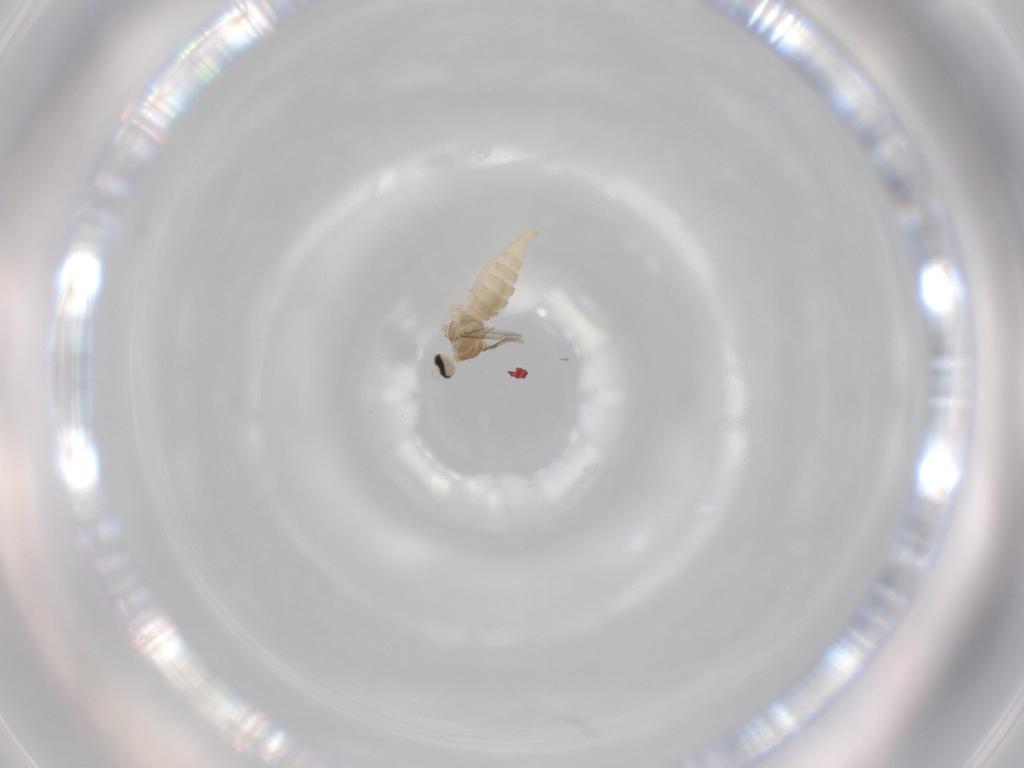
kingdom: Animalia
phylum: Arthropoda
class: Insecta
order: Diptera
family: Cecidomyiidae
